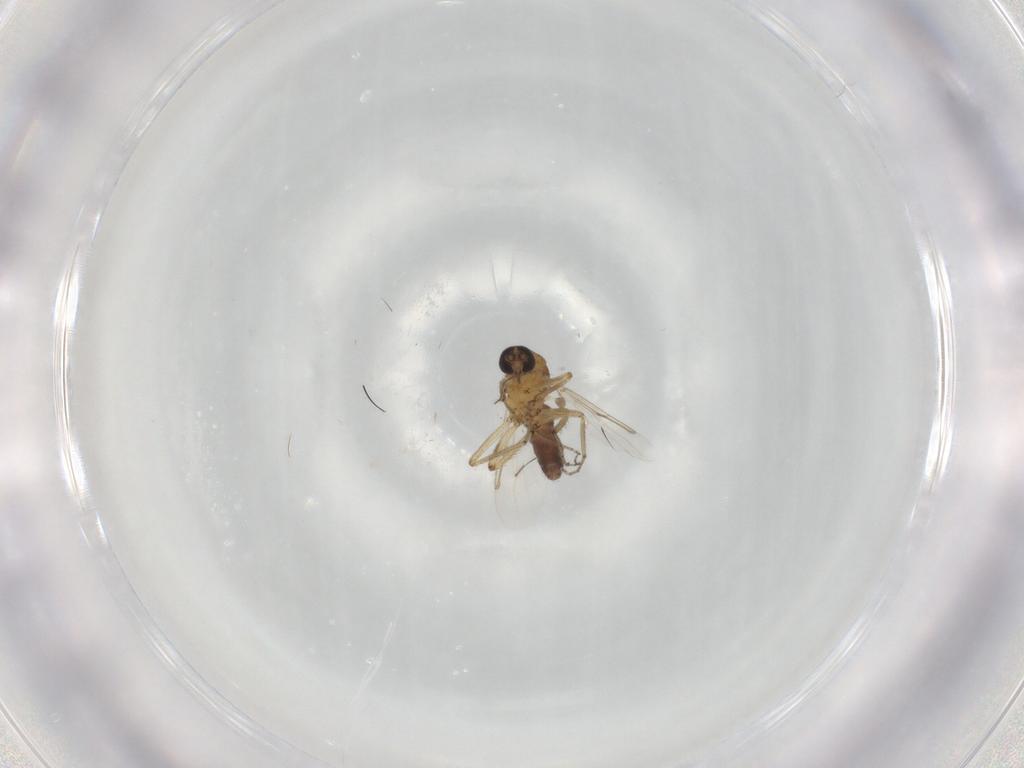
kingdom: Animalia
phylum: Arthropoda
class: Insecta
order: Diptera
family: Ceratopogonidae
